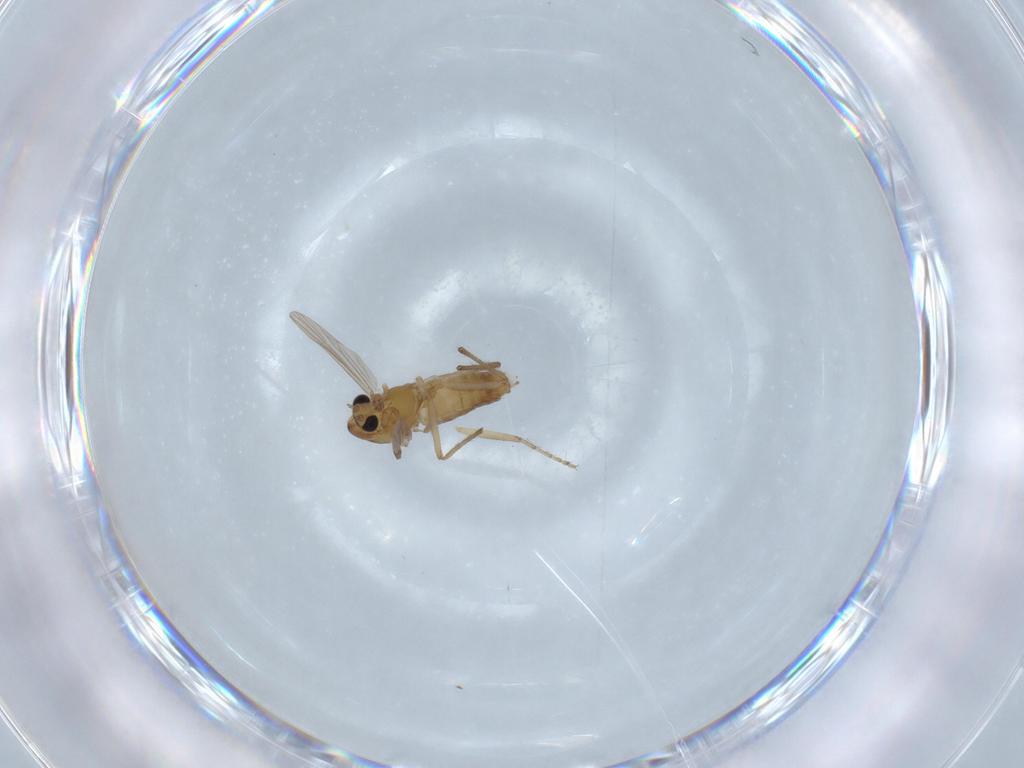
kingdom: Animalia
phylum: Arthropoda
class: Insecta
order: Diptera
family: Chironomidae
